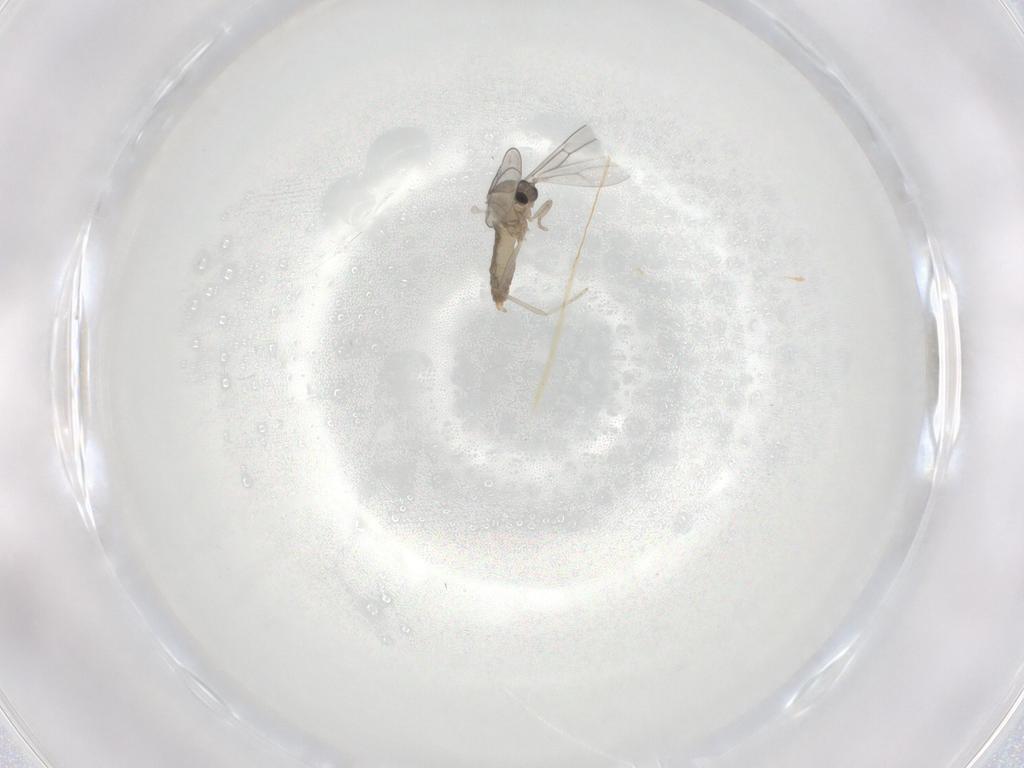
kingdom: Animalia
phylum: Arthropoda
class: Insecta
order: Diptera
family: Cecidomyiidae
